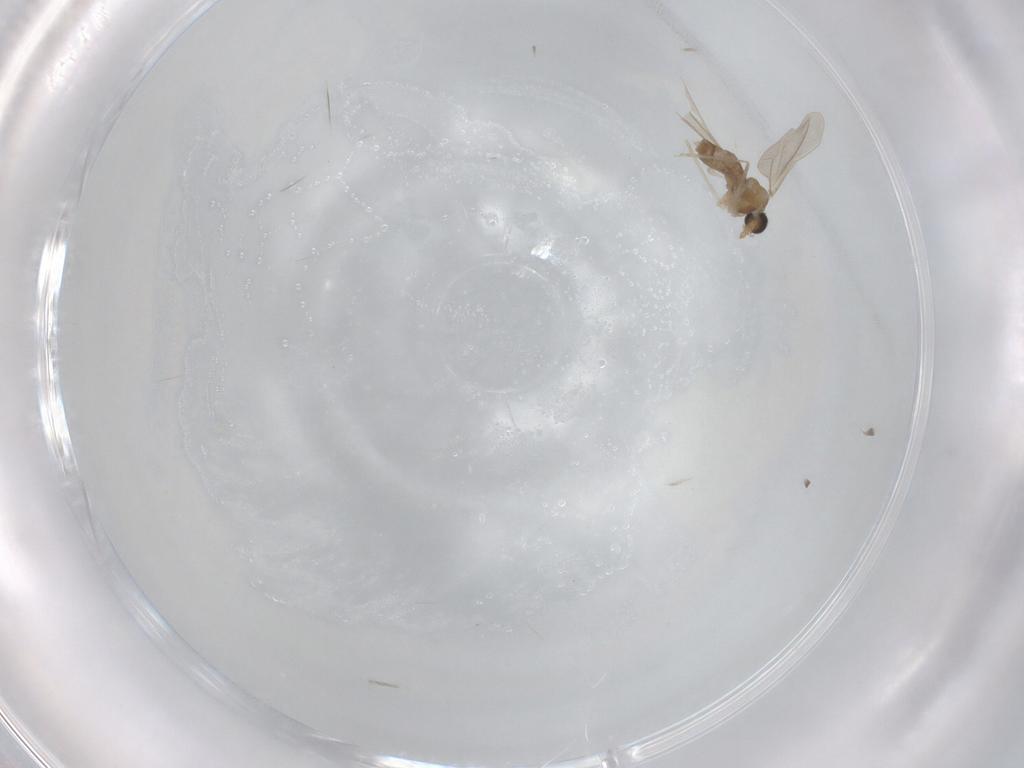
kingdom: Animalia
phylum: Arthropoda
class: Insecta
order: Diptera
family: Cecidomyiidae
